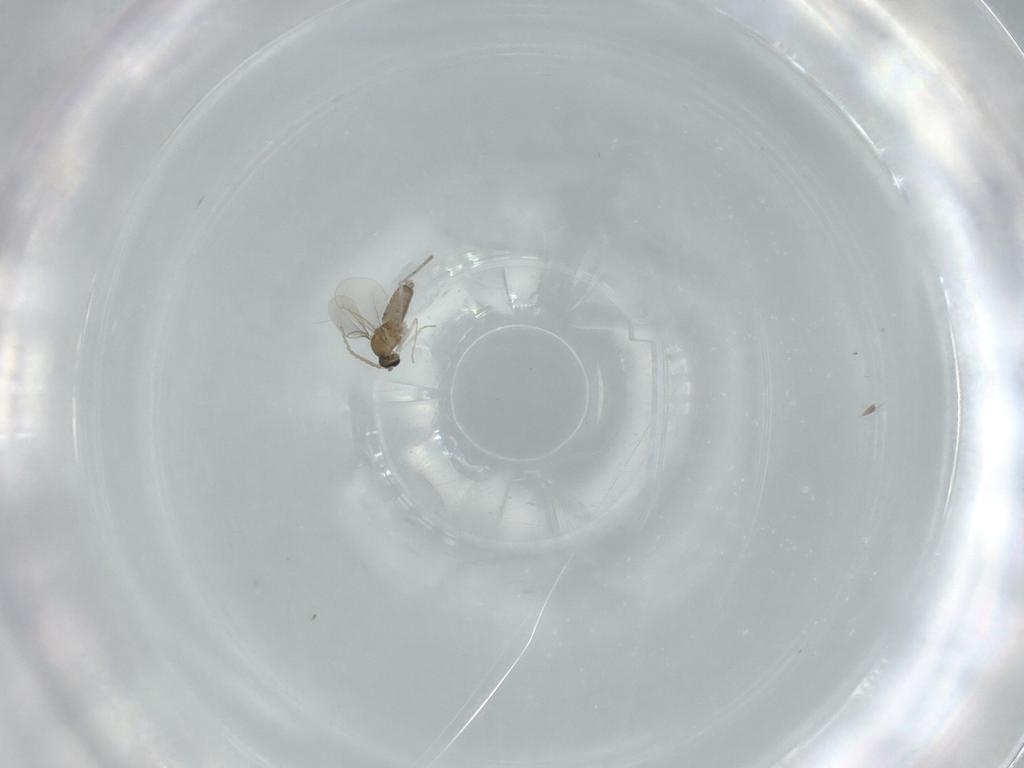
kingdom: Animalia
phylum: Arthropoda
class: Insecta
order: Diptera
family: Cecidomyiidae
